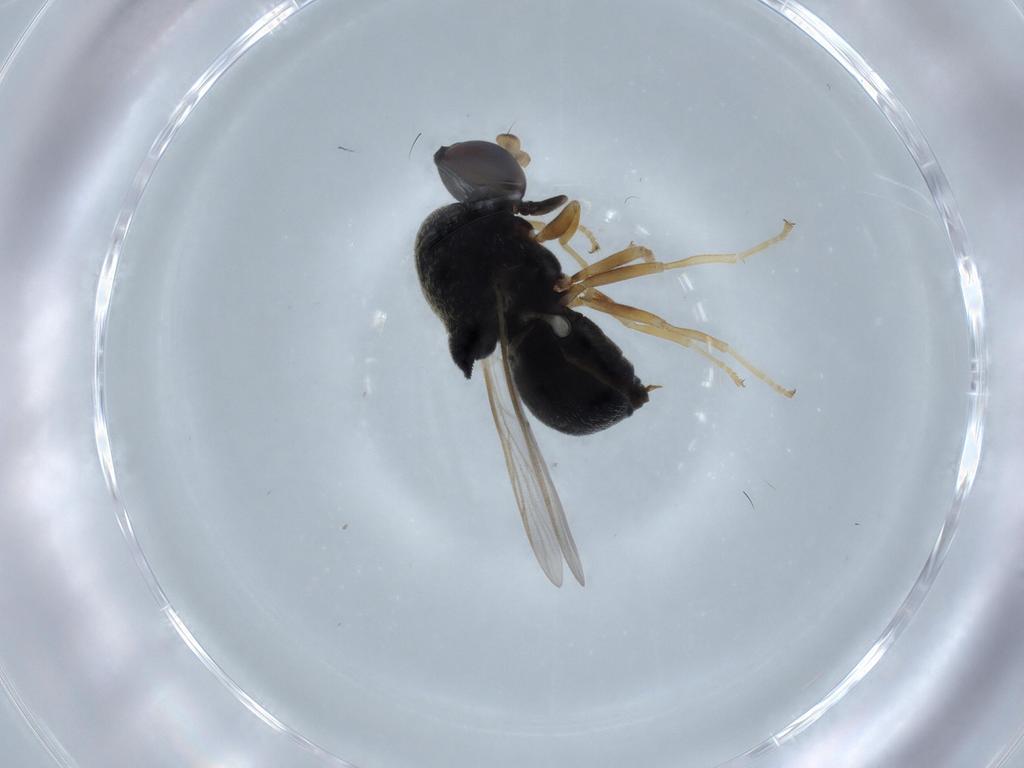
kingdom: Animalia
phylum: Arthropoda
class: Insecta
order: Diptera
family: Stratiomyidae
